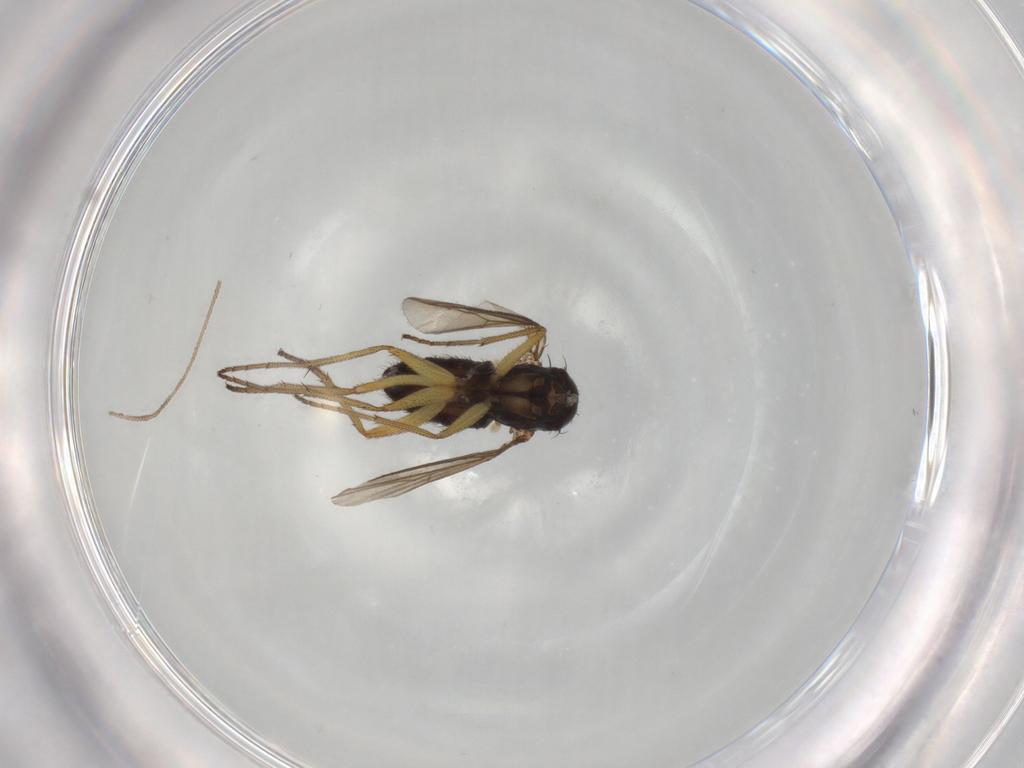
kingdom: Animalia
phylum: Arthropoda
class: Insecta
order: Diptera
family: Dolichopodidae
